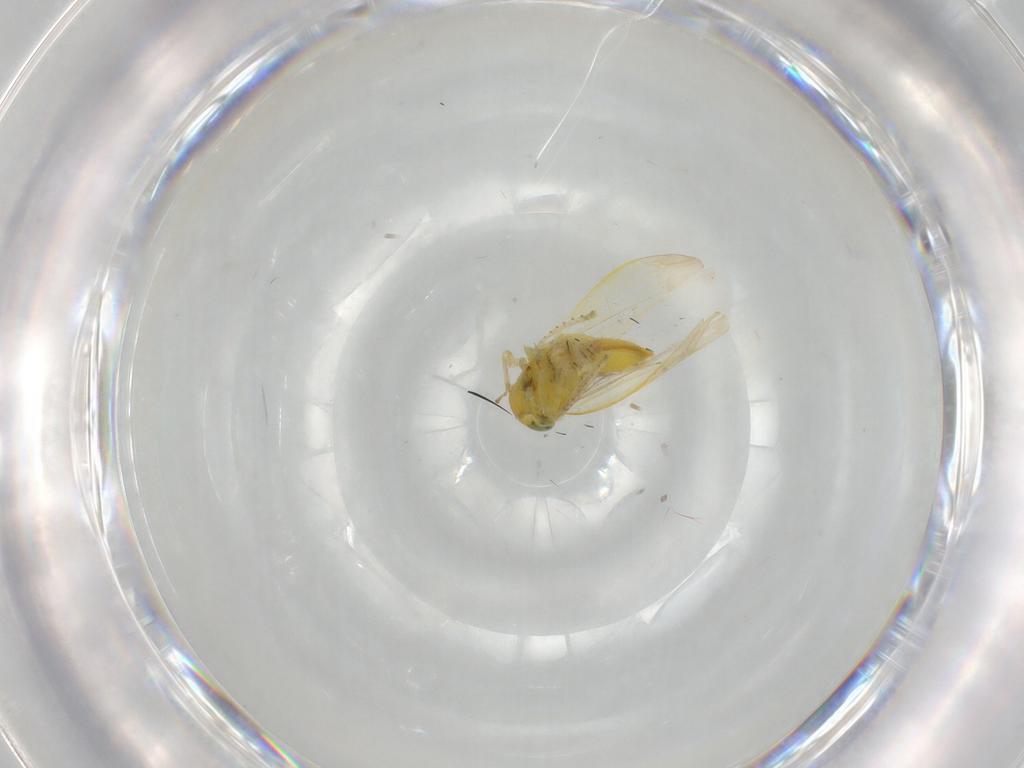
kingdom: Animalia
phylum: Arthropoda
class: Insecta
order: Hemiptera
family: Cicadellidae
